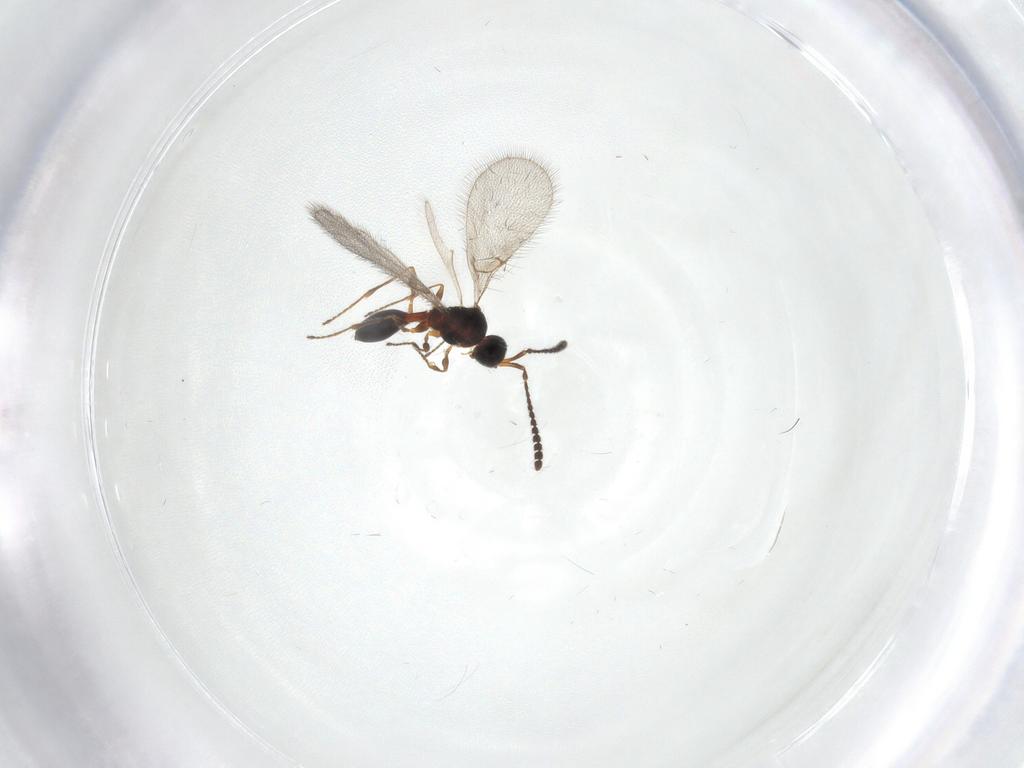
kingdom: Animalia
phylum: Arthropoda
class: Insecta
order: Hymenoptera
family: Diapriidae
